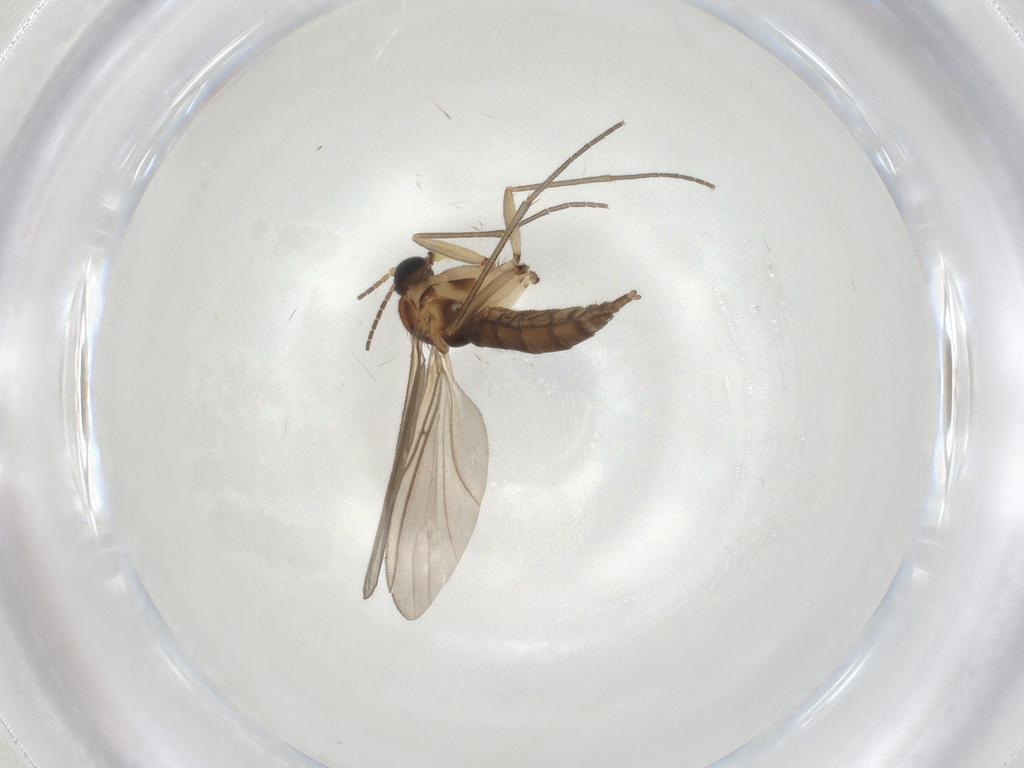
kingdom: Animalia
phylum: Arthropoda
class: Insecta
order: Diptera
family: Sciaridae
